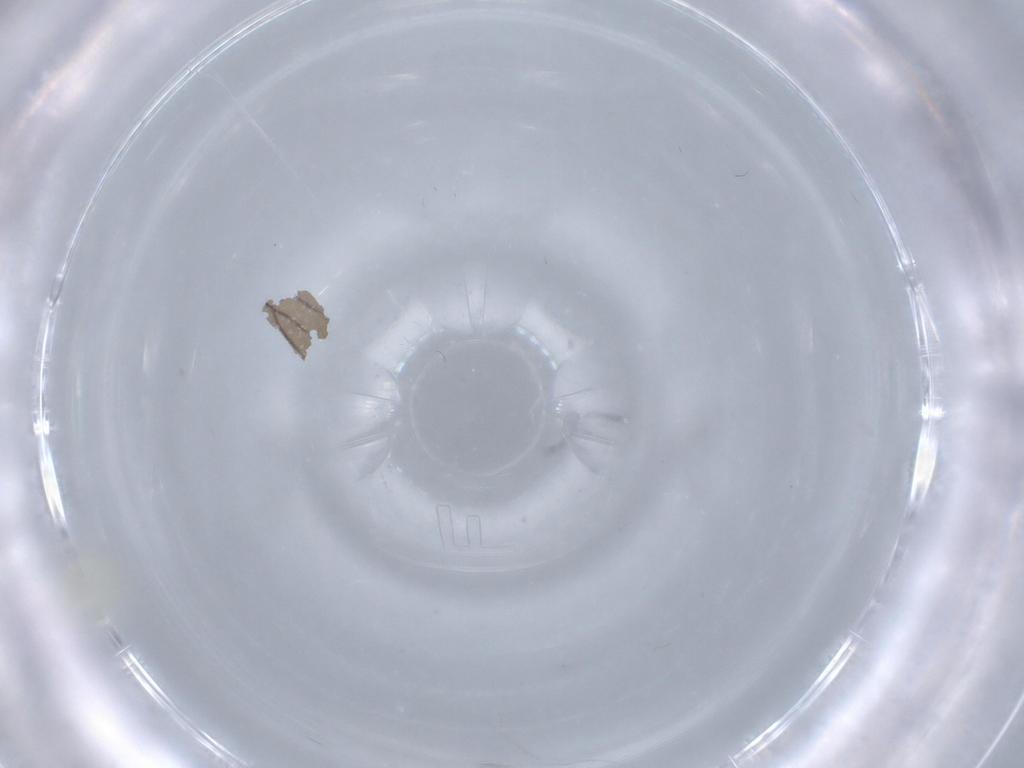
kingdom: Animalia
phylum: Arthropoda
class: Insecta
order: Hemiptera
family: Aleyrodidae
